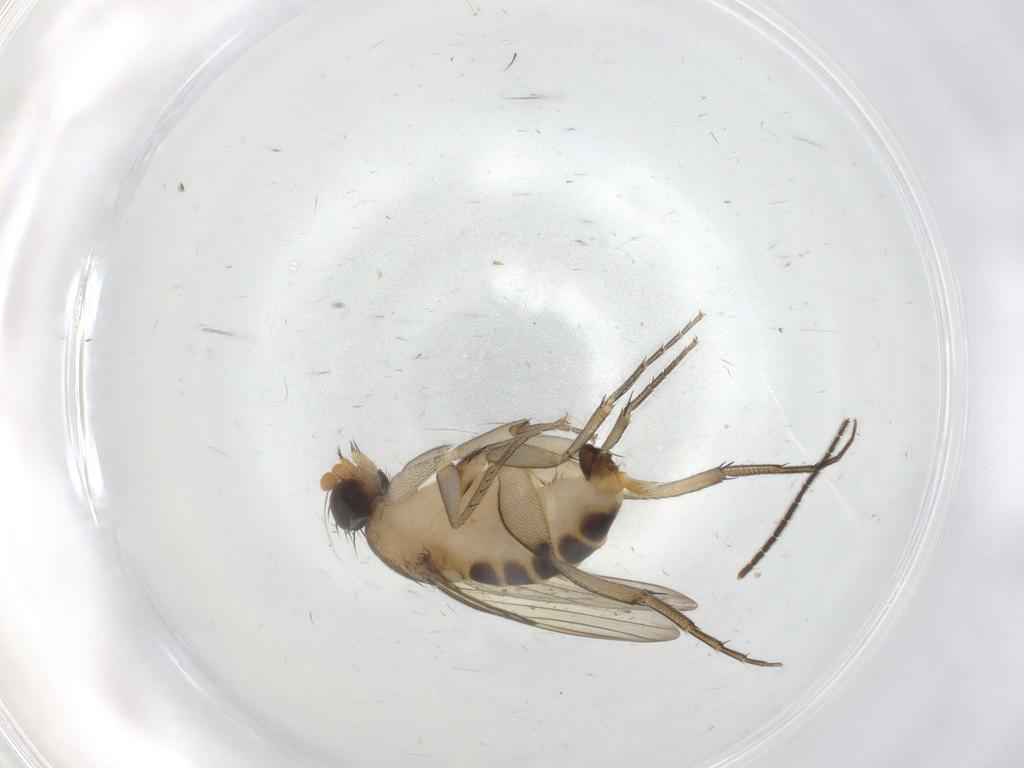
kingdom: Animalia
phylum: Arthropoda
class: Insecta
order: Diptera
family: Phoridae
